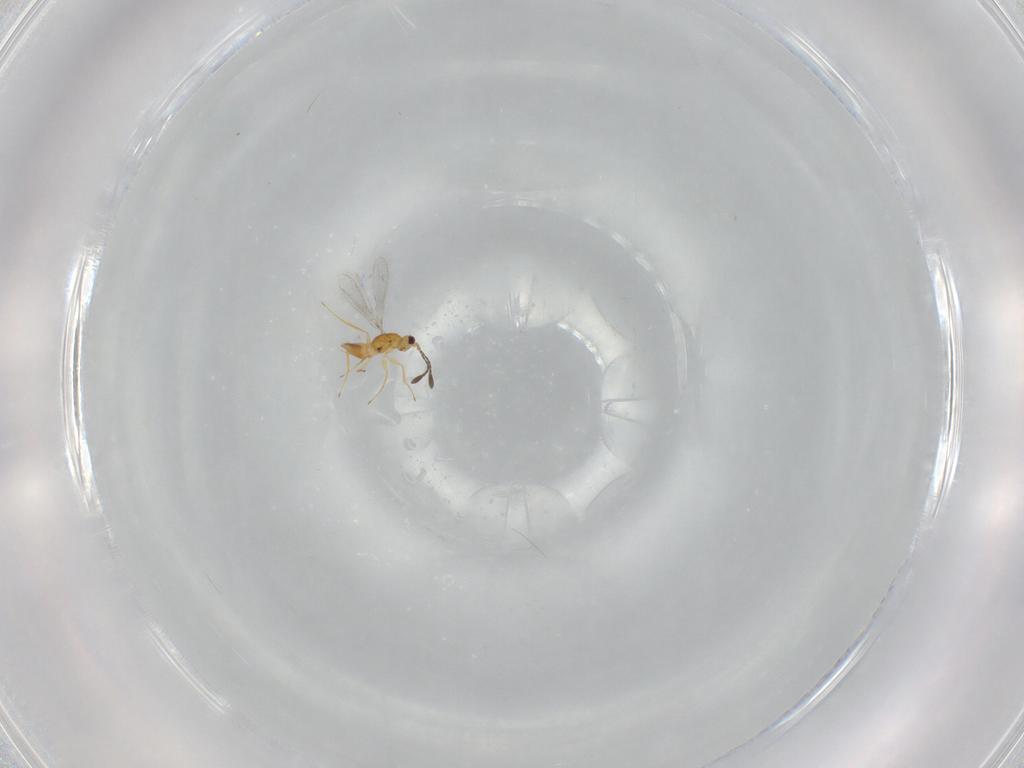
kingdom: Animalia
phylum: Arthropoda
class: Insecta
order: Hymenoptera
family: Mymaridae
